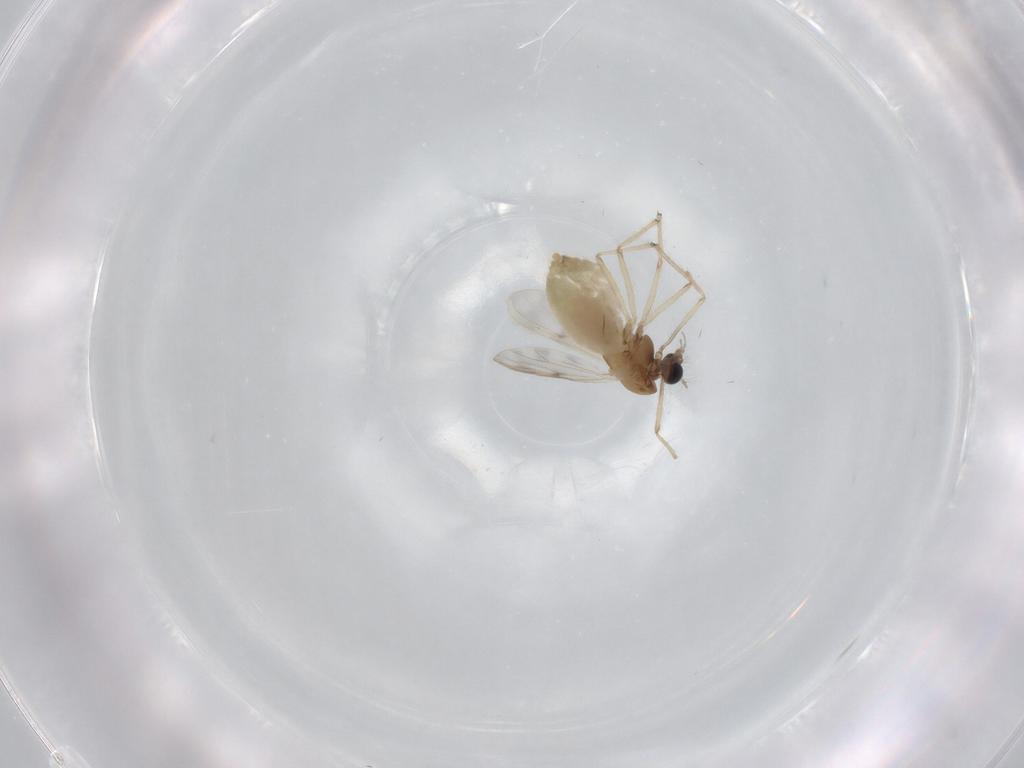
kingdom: Animalia
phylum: Arthropoda
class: Insecta
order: Diptera
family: Chironomidae
